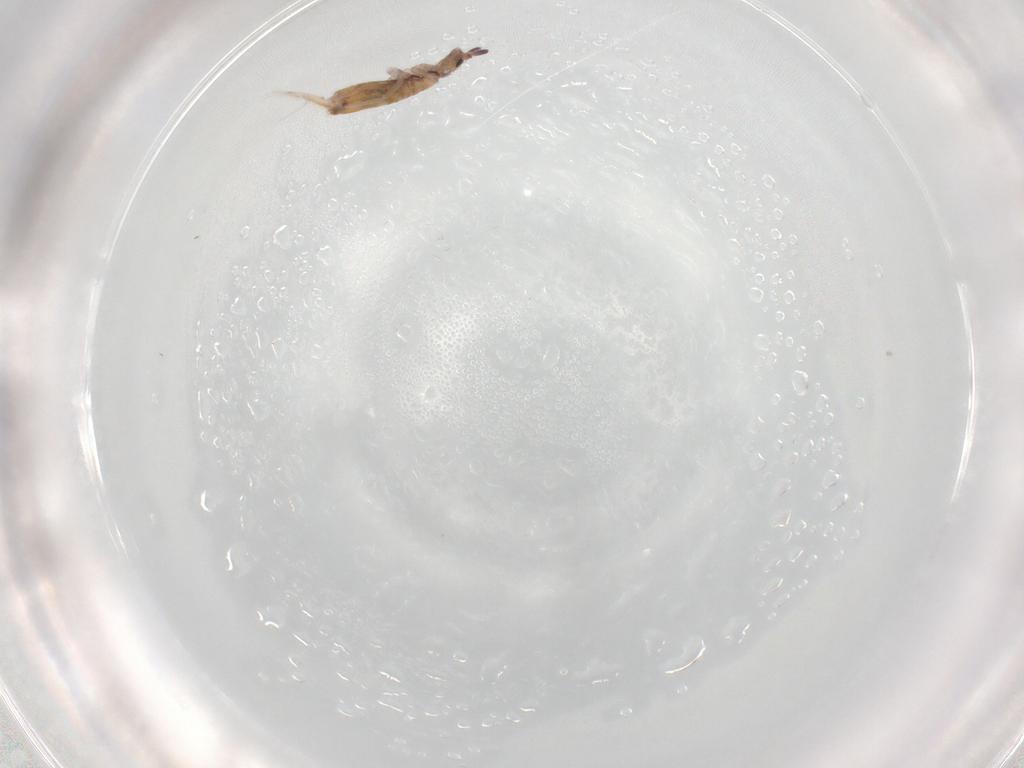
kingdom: Animalia
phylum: Arthropoda
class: Collembola
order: Poduromorpha
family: Hypogastruridae
